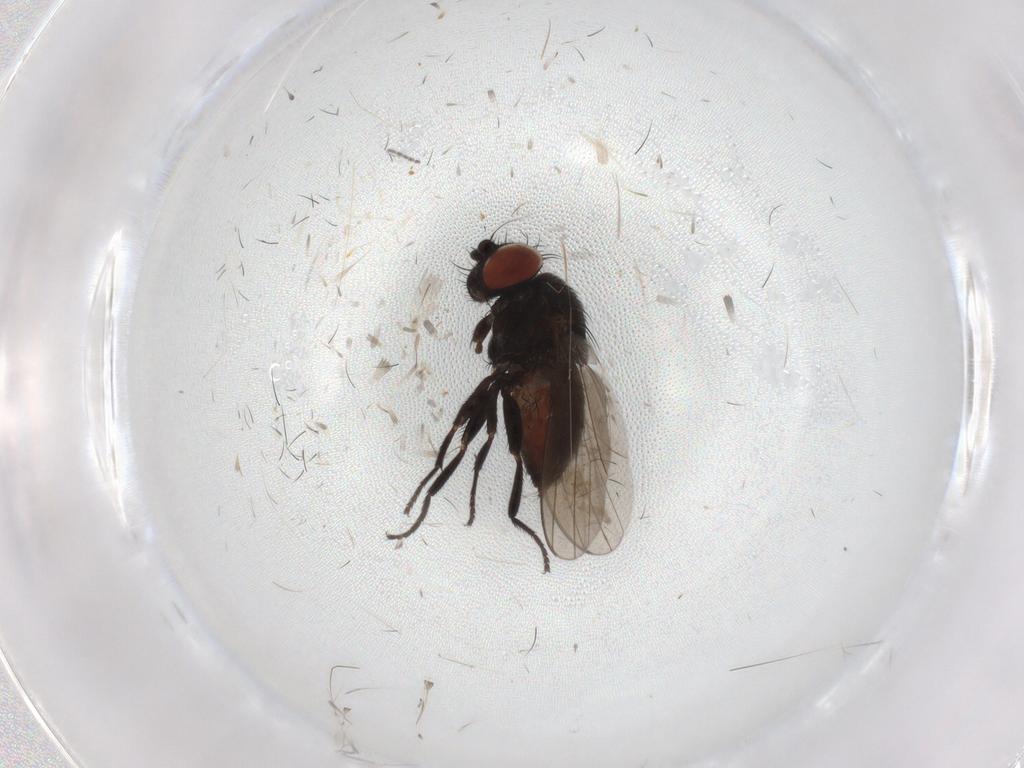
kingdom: Animalia
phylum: Arthropoda
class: Insecta
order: Diptera
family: Milichiidae
